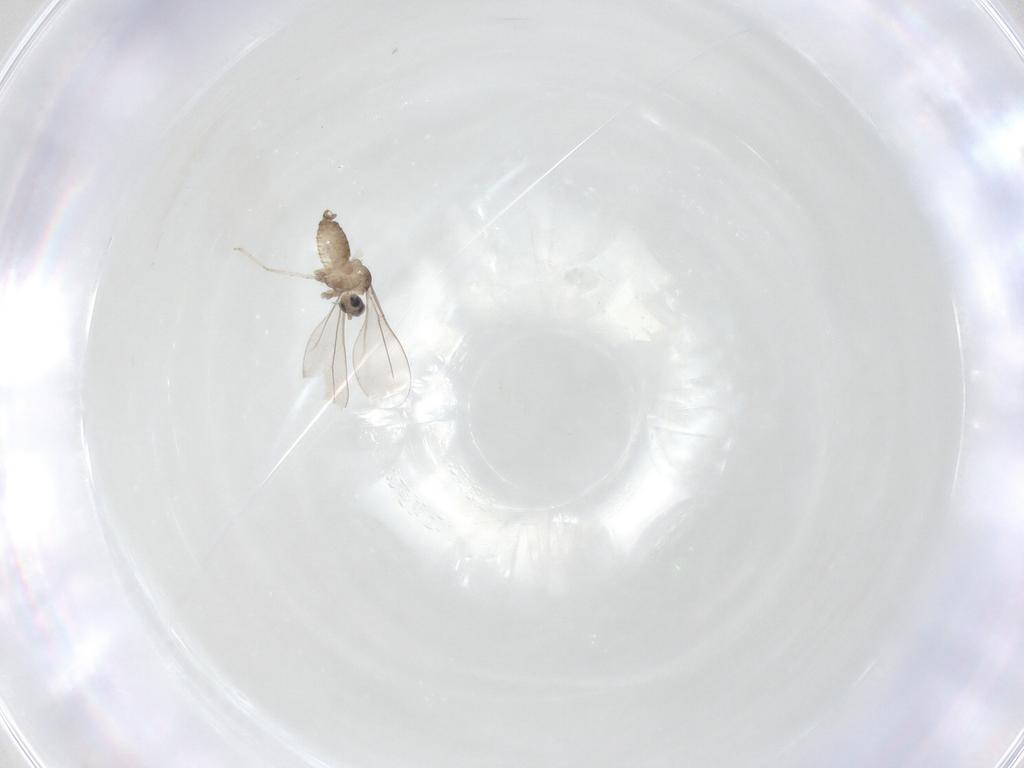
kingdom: Animalia
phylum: Arthropoda
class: Insecta
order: Diptera
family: Cecidomyiidae
